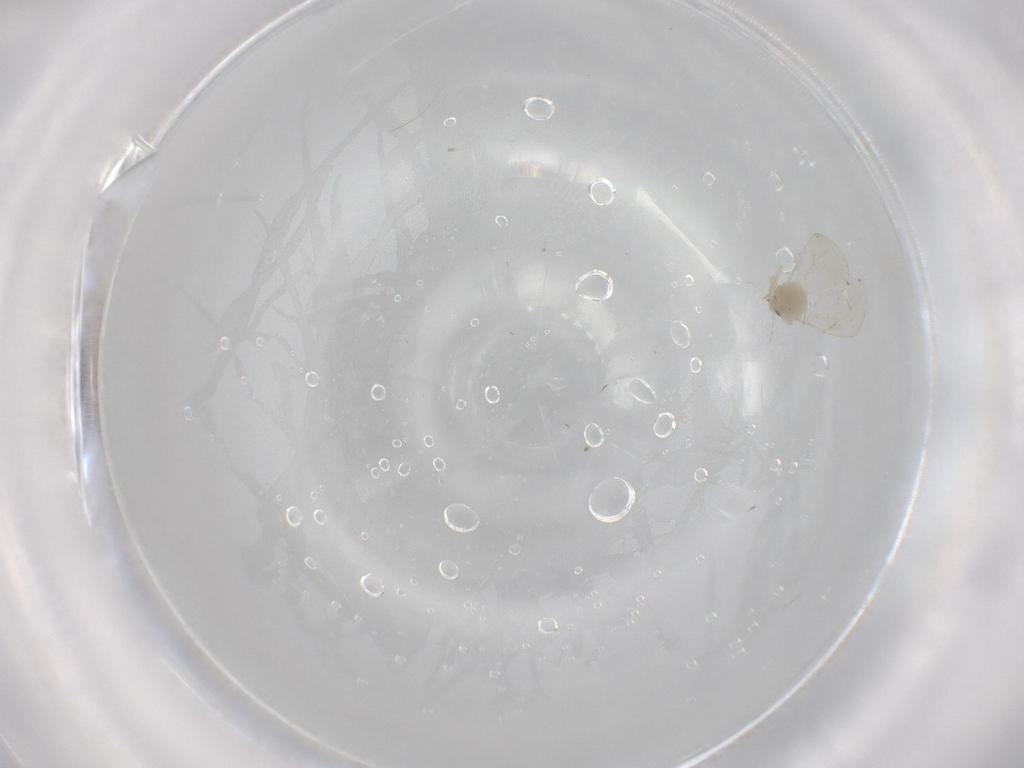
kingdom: Animalia
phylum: Arthropoda
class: Insecta
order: Hemiptera
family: Aleyrodidae
